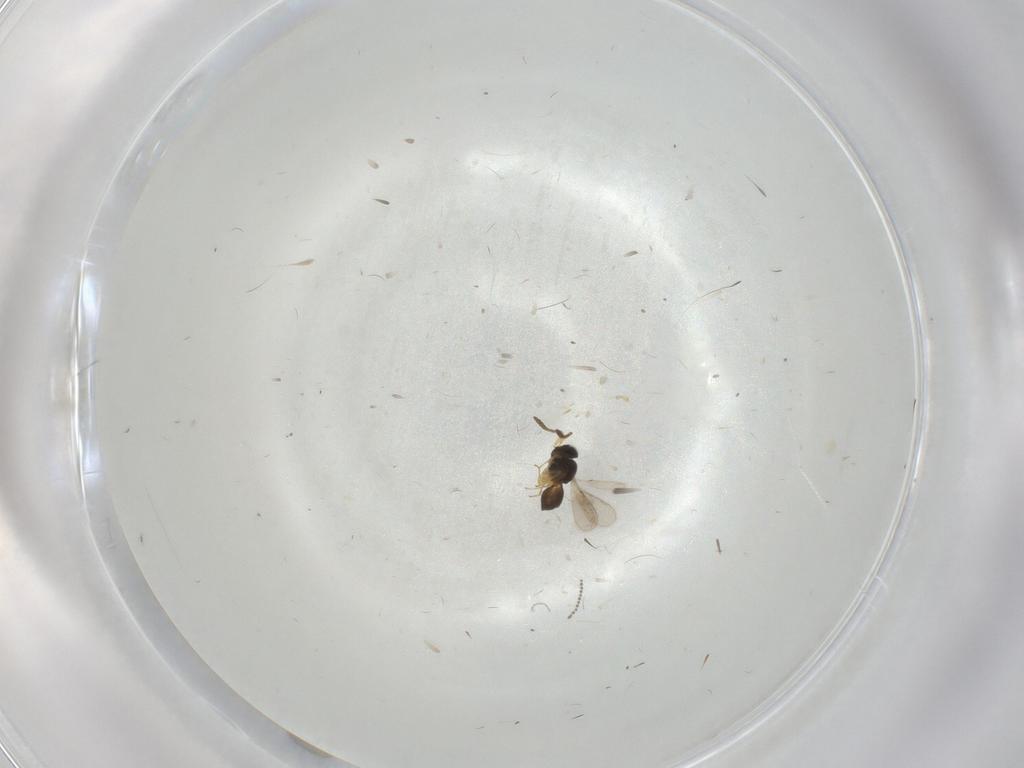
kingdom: Animalia
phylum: Arthropoda
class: Insecta
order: Hymenoptera
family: Scelionidae
